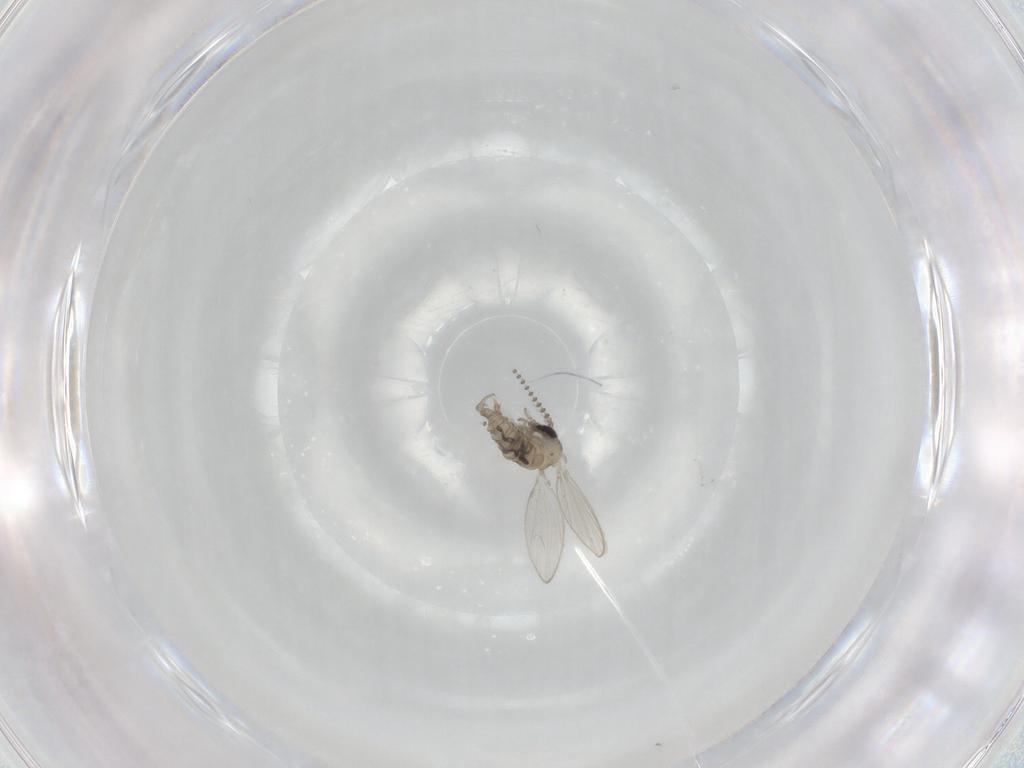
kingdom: Animalia
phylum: Arthropoda
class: Insecta
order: Diptera
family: Psychodidae
